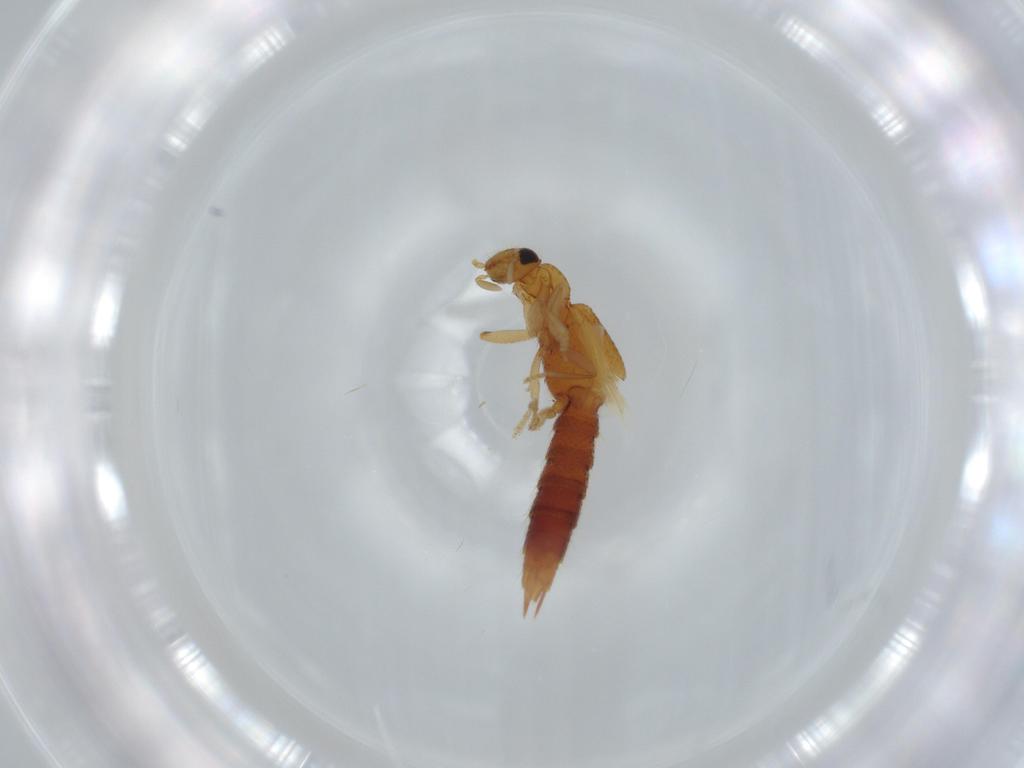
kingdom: Animalia
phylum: Arthropoda
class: Insecta
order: Coleoptera
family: Staphylinidae
